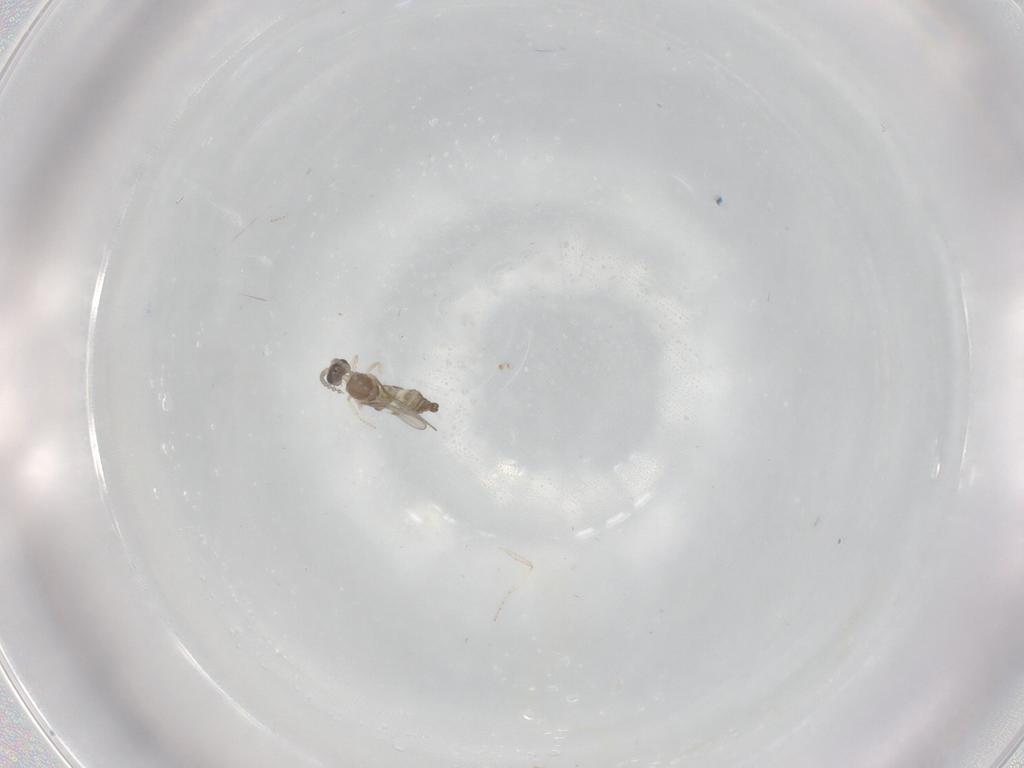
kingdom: Animalia
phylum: Arthropoda
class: Insecta
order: Diptera
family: Cecidomyiidae
